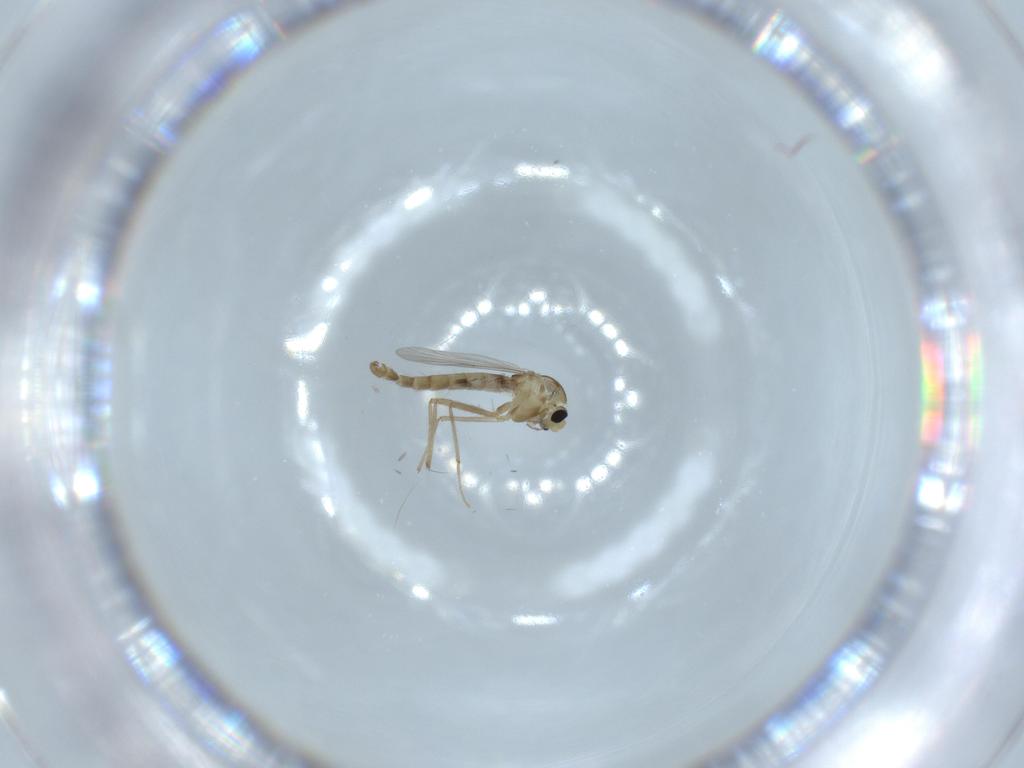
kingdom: Animalia
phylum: Arthropoda
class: Insecta
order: Diptera
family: Chironomidae
